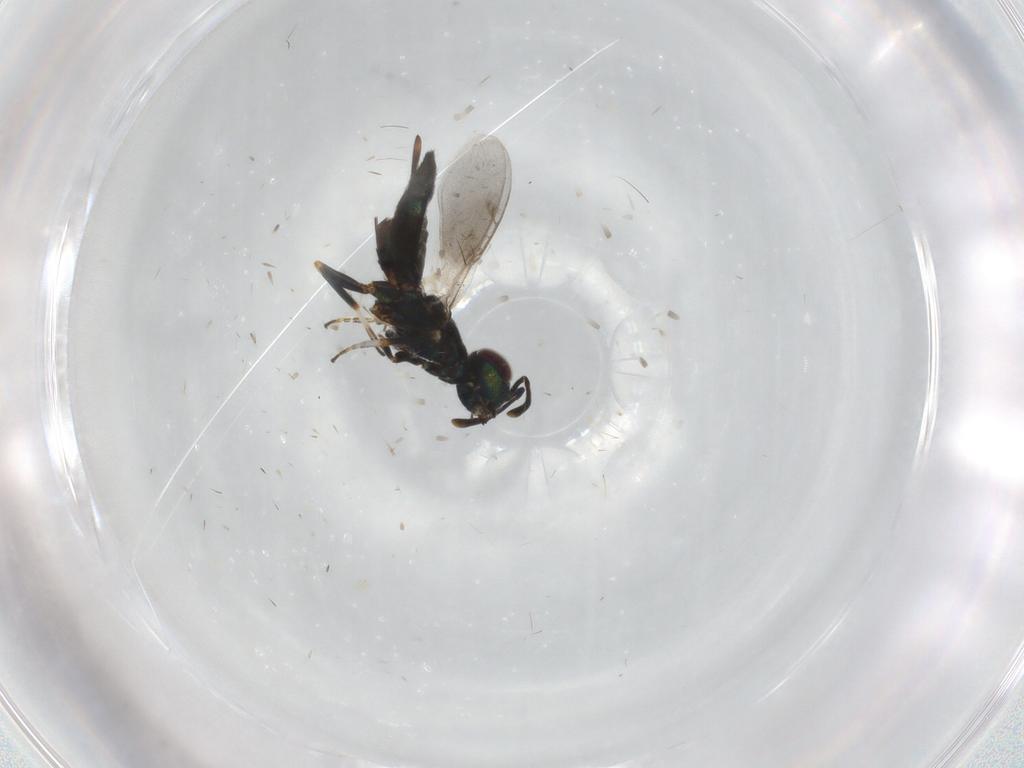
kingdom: Animalia
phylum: Arthropoda
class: Insecta
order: Hymenoptera
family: Eupelmidae
